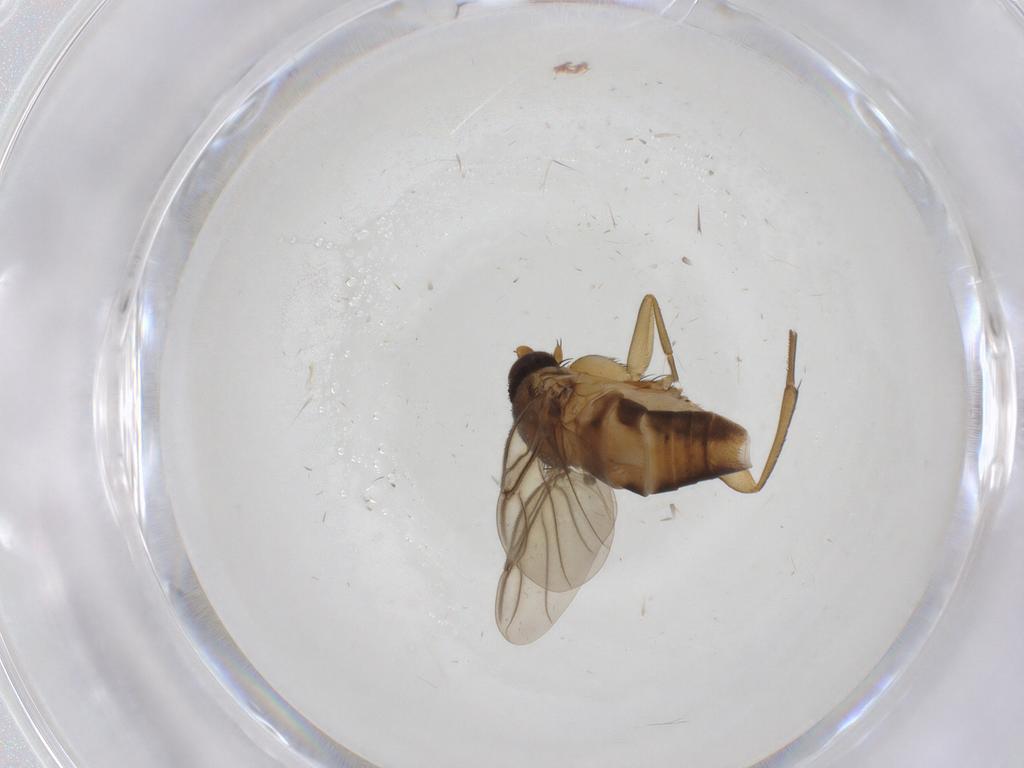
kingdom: Animalia
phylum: Arthropoda
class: Insecta
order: Diptera
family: Phoridae
